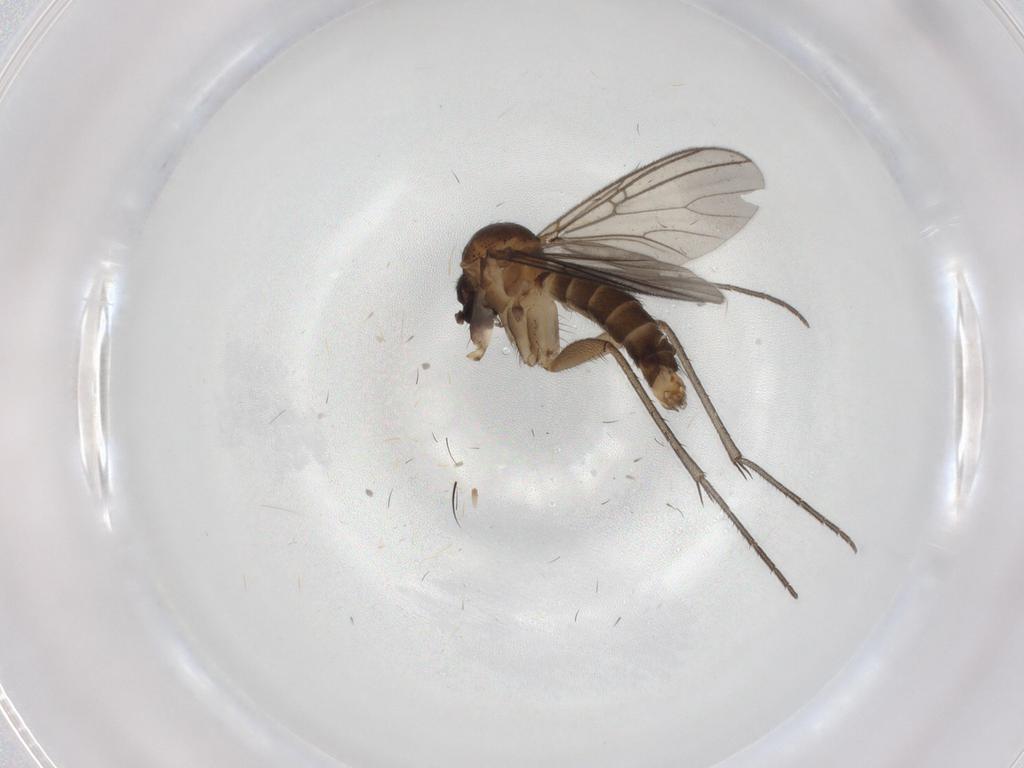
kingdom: Animalia
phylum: Arthropoda
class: Insecta
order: Diptera
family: Mycetophilidae
